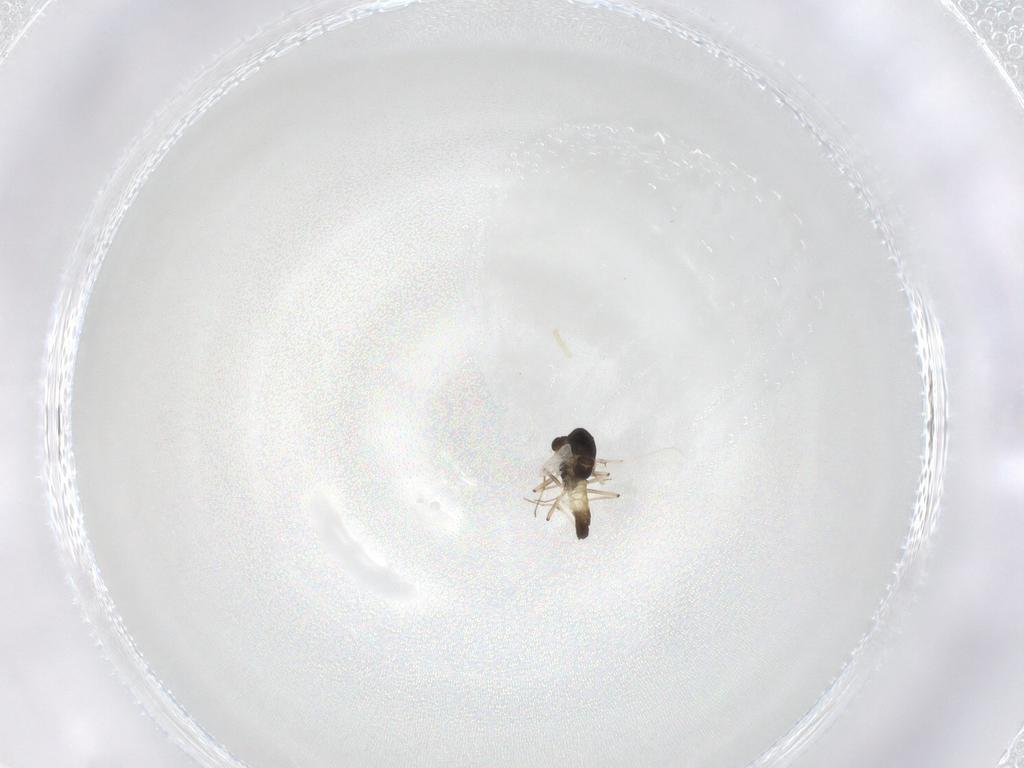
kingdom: Animalia
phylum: Arthropoda
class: Insecta
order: Diptera
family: Chironomidae
